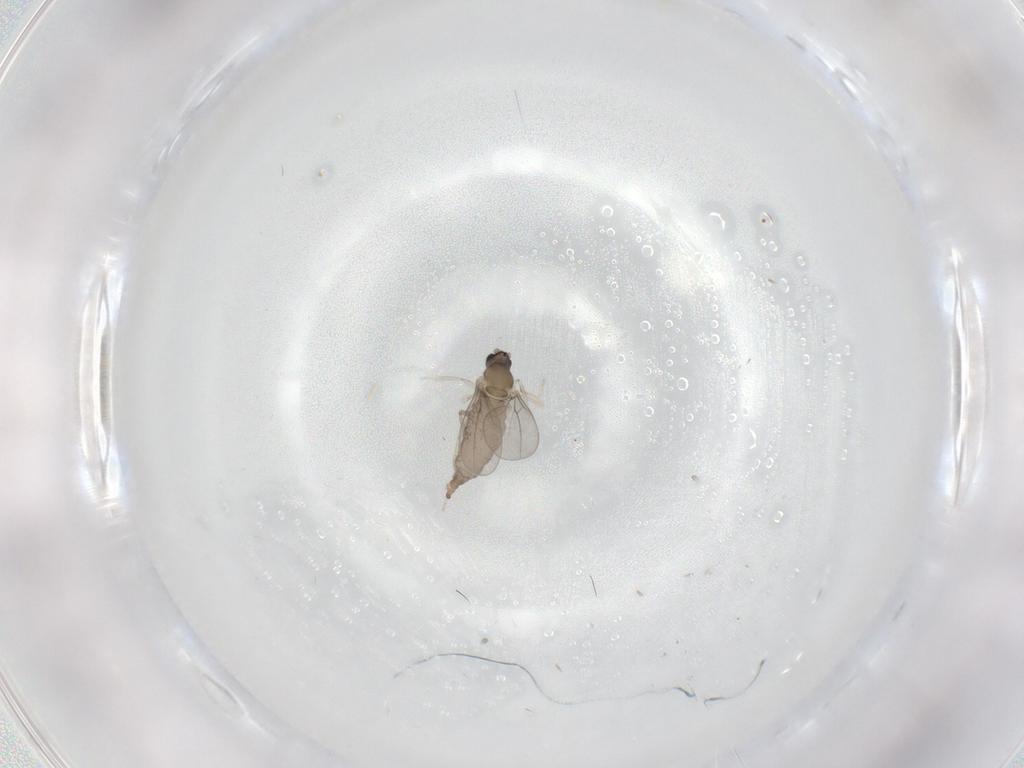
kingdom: Animalia
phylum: Arthropoda
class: Insecta
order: Diptera
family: Cecidomyiidae
